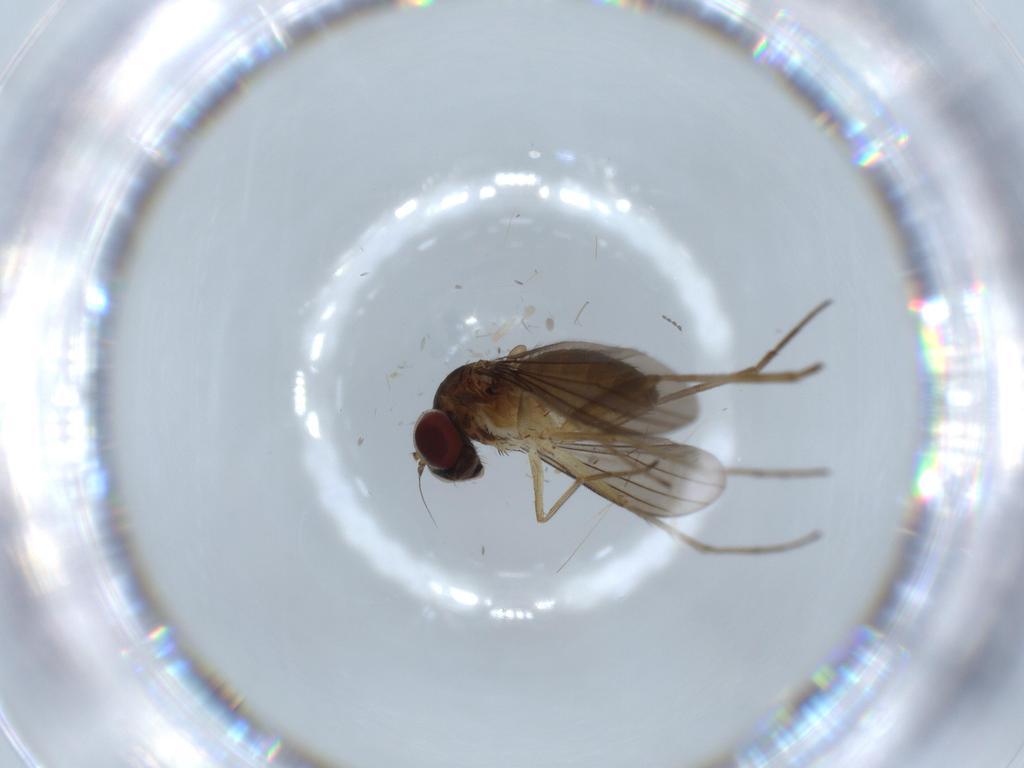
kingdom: Animalia
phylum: Arthropoda
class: Insecta
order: Diptera
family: Dolichopodidae
